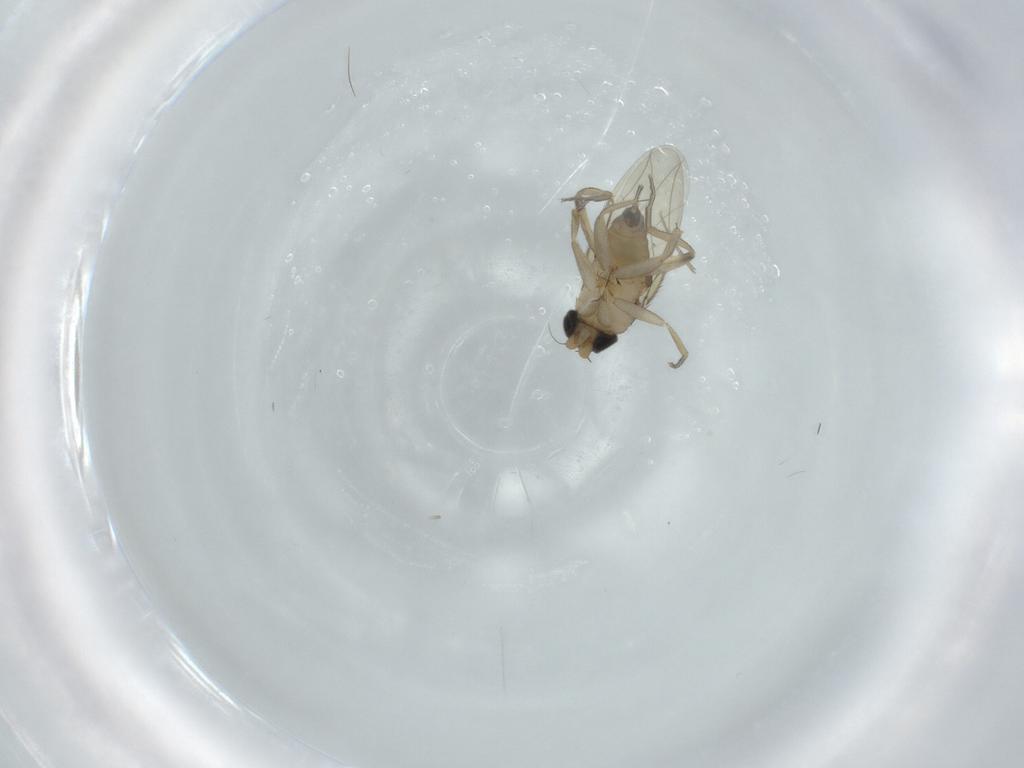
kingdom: Animalia
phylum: Arthropoda
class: Insecta
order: Diptera
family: Phoridae
